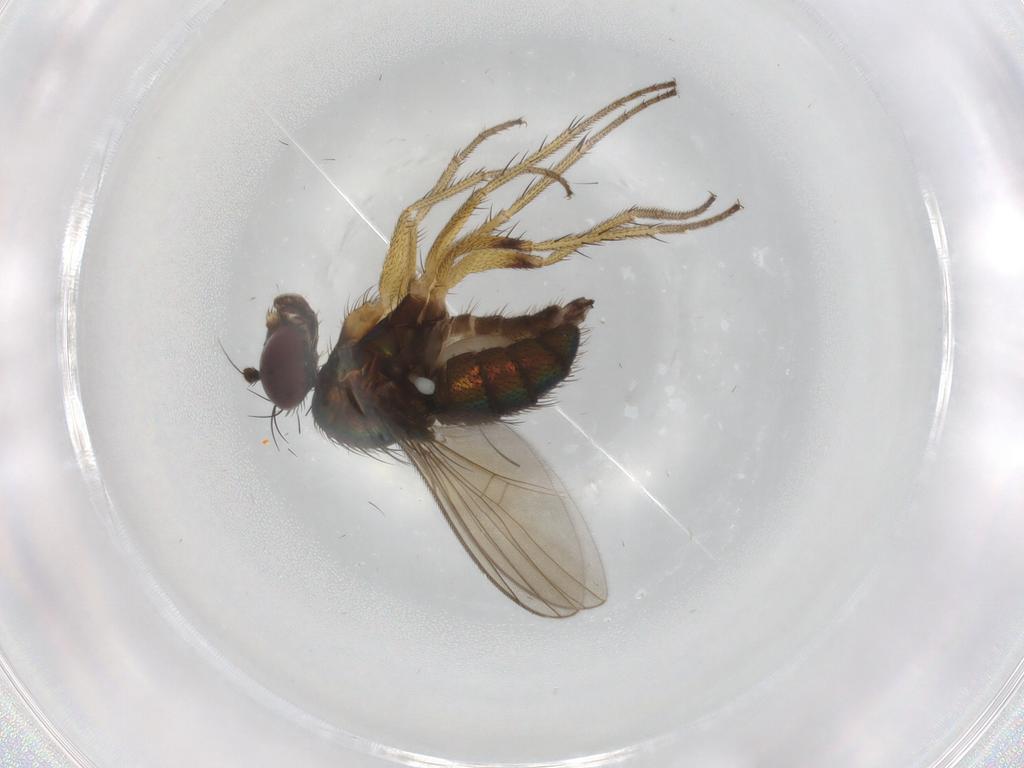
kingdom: Animalia
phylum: Arthropoda
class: Insecta
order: Diptera
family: Dolichopodidae
